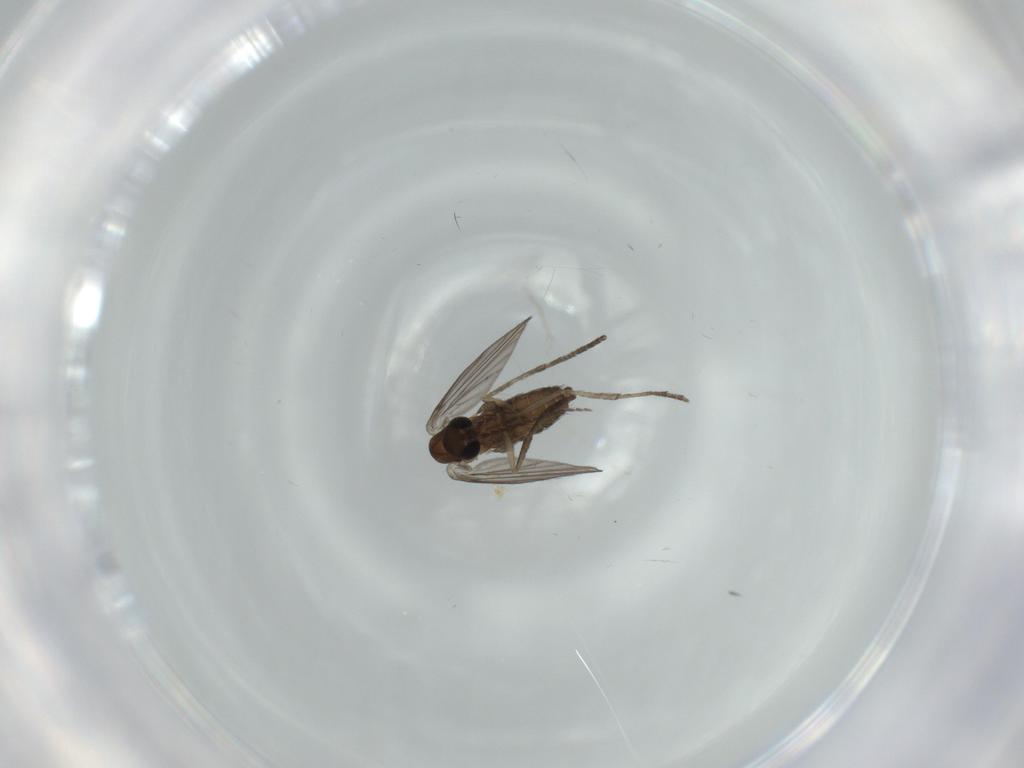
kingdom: Animalia
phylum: Arthropoda
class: Insecta
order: Diptera
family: Psychodidae
